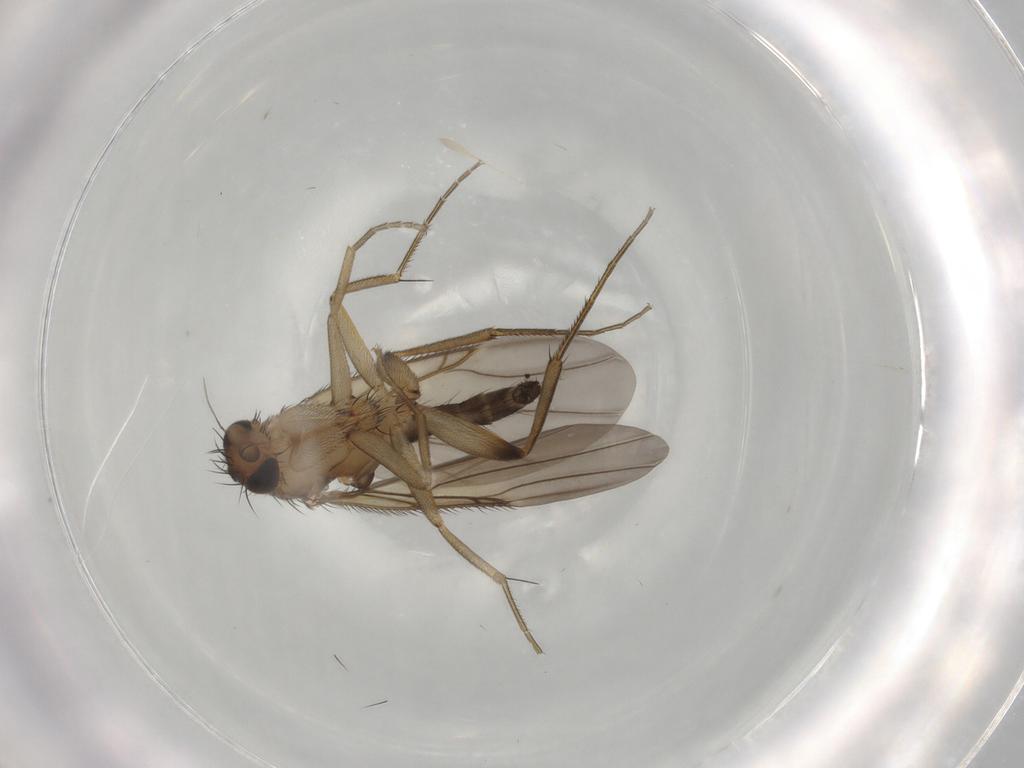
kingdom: Animalia
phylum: Arthropoda
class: Insecta
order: Diptera
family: Phoridae
